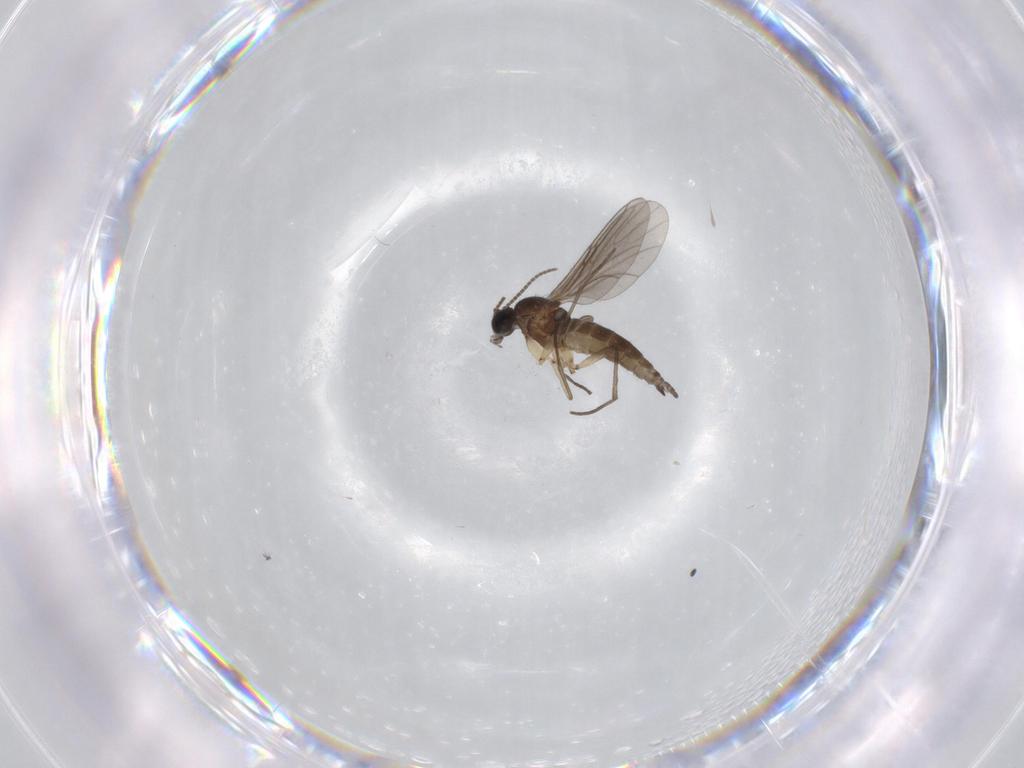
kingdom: Animalia
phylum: Arthropoda
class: Insecta
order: Diptera
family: Sciaridae
